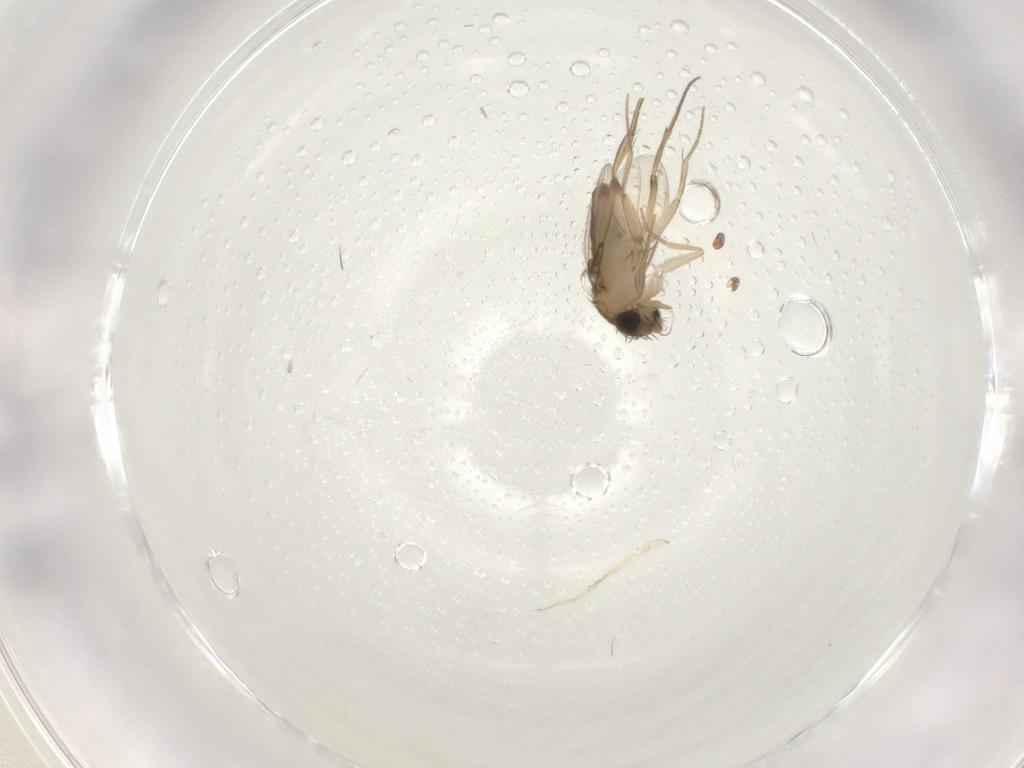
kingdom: Animalia
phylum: Arthropoda
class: Insecta
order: Diptera
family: Phoridae
